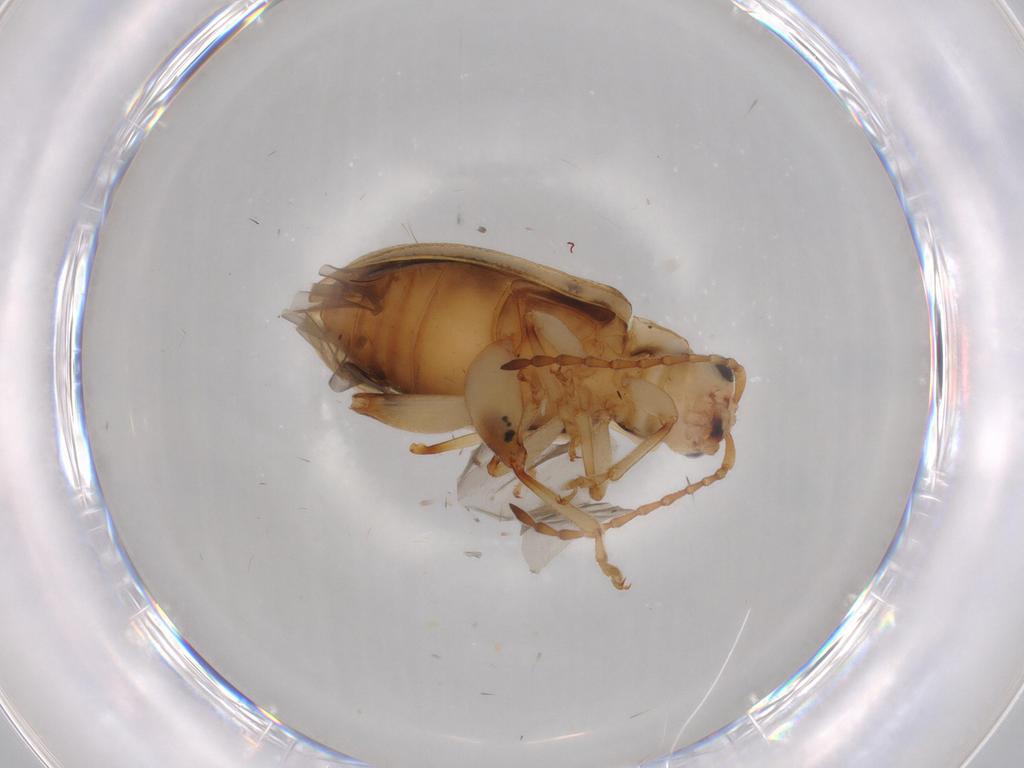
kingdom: Animalia
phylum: Arthropoda
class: Insecta
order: Coleoptera
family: Chrysomelidae
